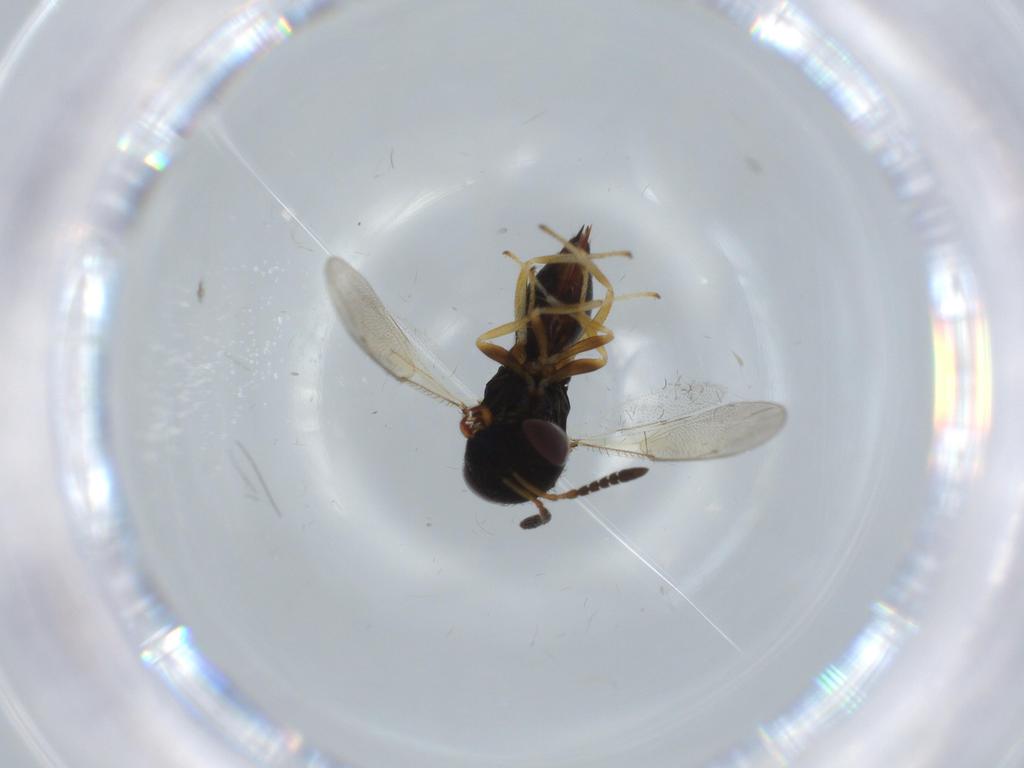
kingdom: Animalia
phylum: Arthropoda
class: Insecta
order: Hymenoptera
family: Pteromalidae
